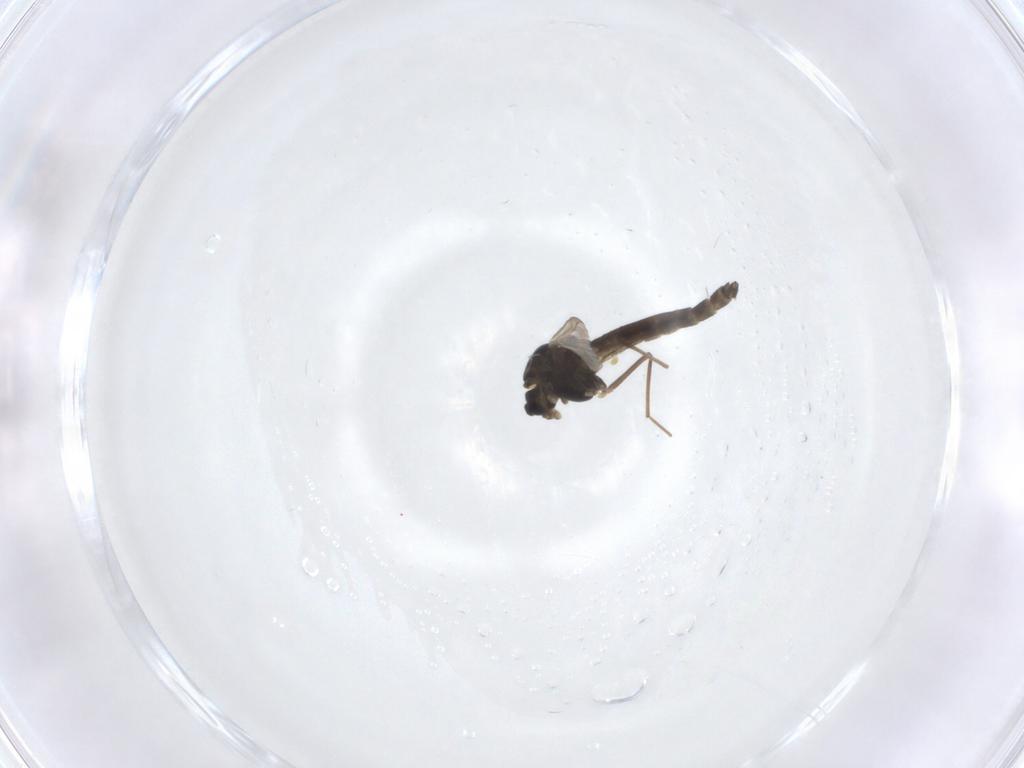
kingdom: Animalia
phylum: Arthropoda
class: Insecta
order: Diptera
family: Chironomidae
